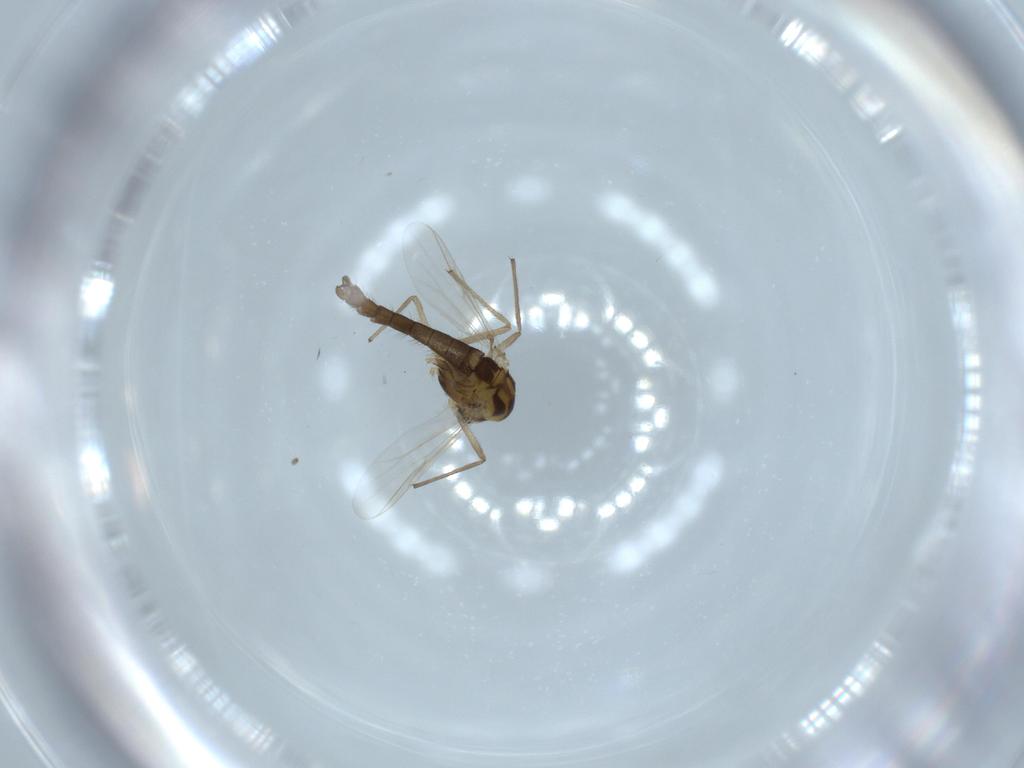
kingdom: Animalia
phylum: Arthropoda
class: Insecta
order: Diptera
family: Chironomidae
